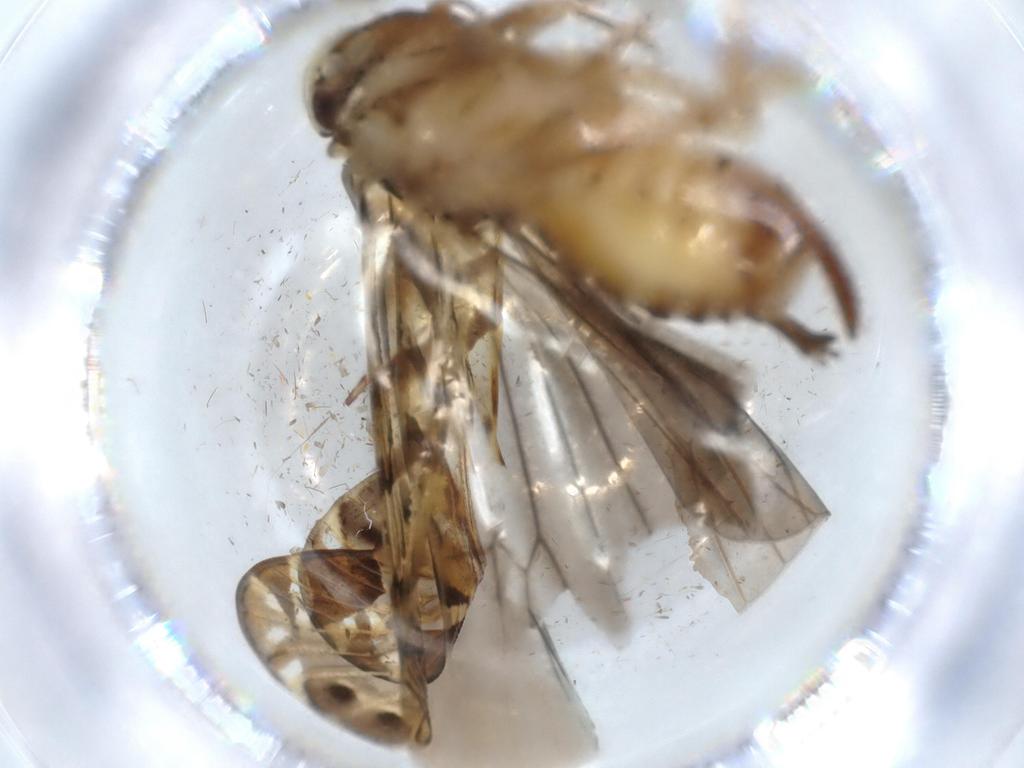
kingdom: Animalia
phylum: Arthropoda
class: Insecta
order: Hemiptera
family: Cixiidae
